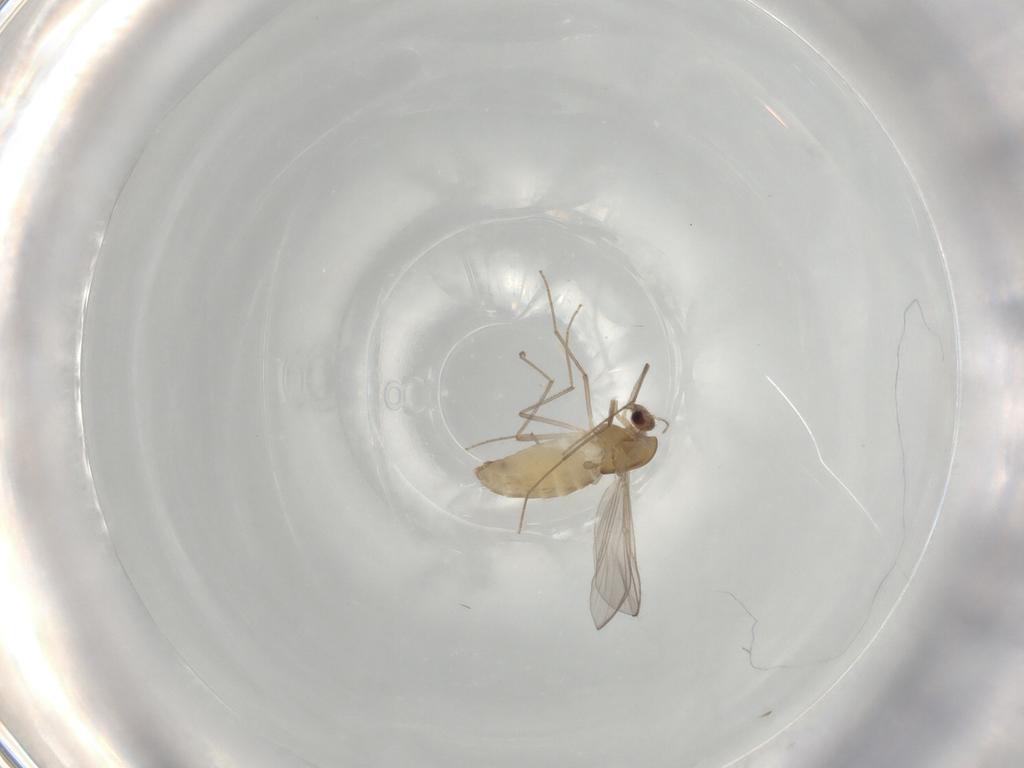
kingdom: Animalia
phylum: Arthropoda
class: Insecta
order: Diptera
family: Chironomidae
